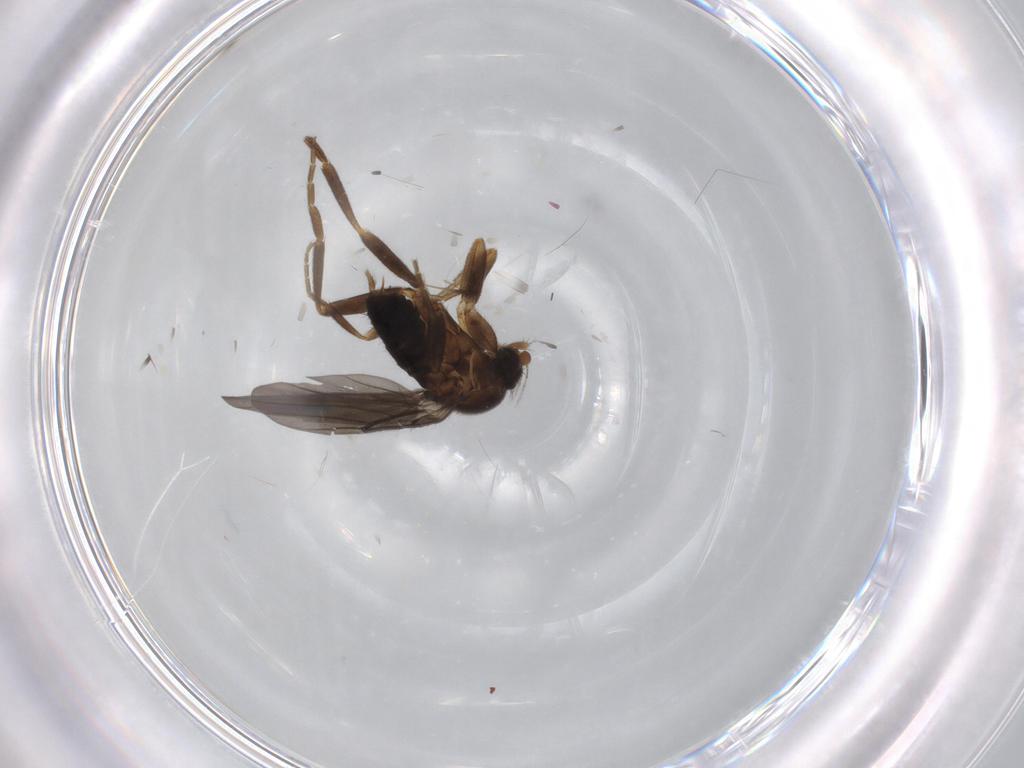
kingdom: Animalia
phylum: Arthropoda
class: Insecta
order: Diptera
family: Phoridae
